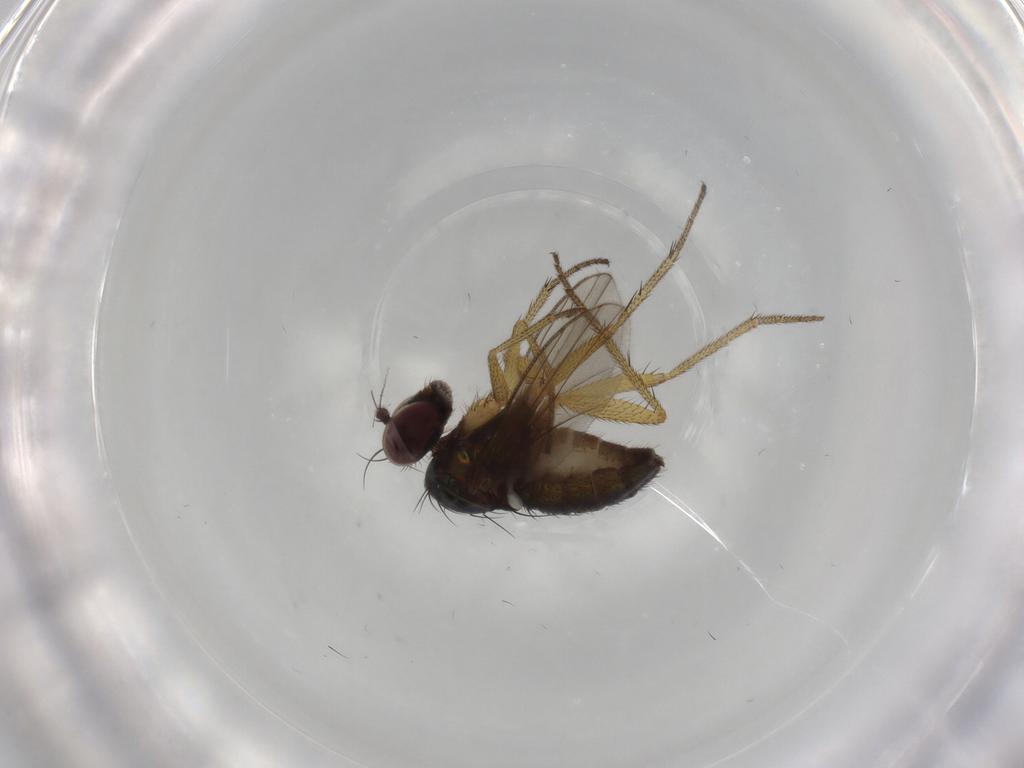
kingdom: Animalia
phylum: Arthropoda
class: Insecta
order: Diptera
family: Dolichopodidae
